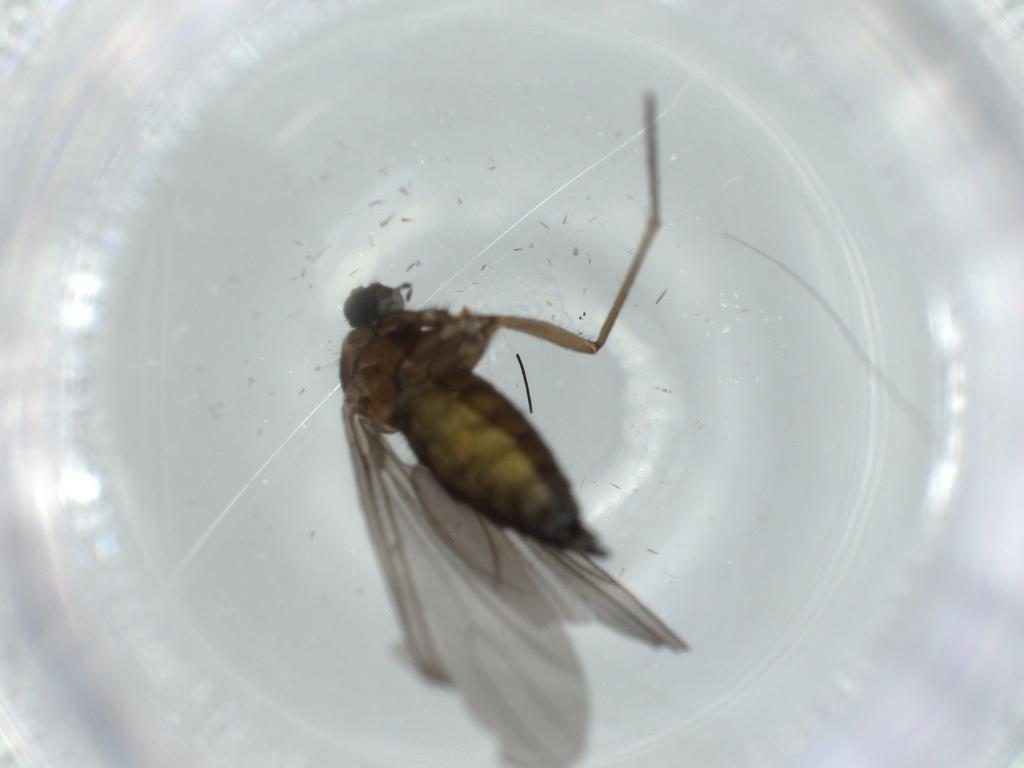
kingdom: Animalia
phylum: Arthropoda
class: Insecta
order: Diptera
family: Sciaridae
